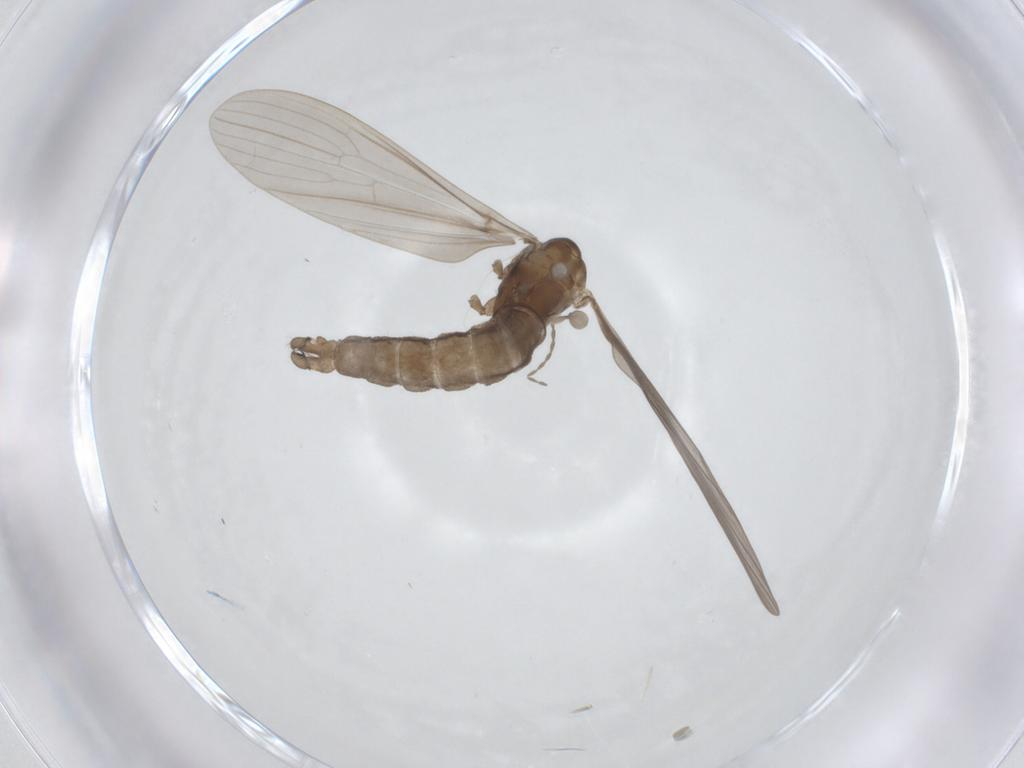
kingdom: Animalia
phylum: Arthropoda
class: Insecta
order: Diptera
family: Limoniidae
